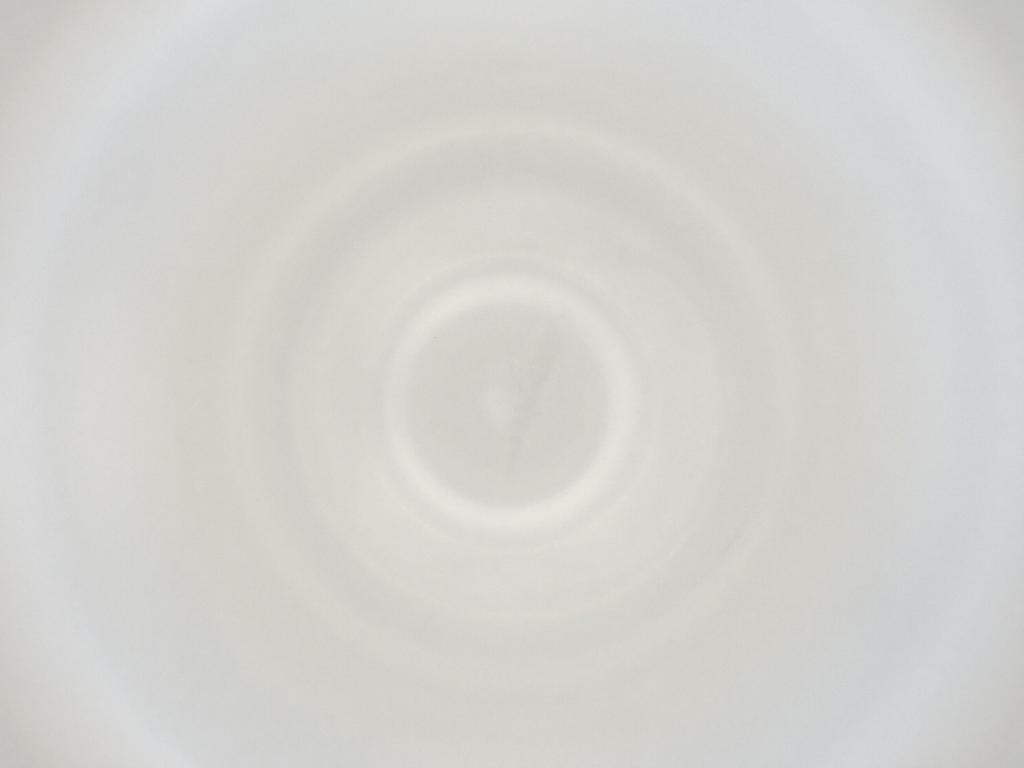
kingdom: Animalia
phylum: Arthropoda
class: Insecta
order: Diptera
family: Cecidomyiidae
